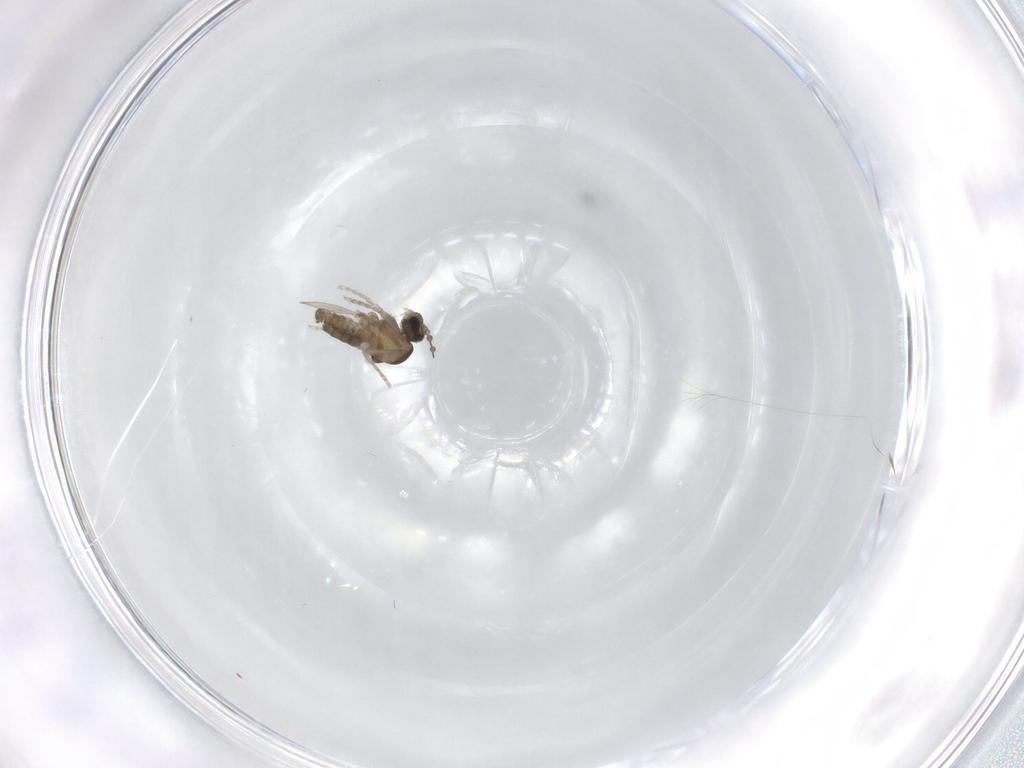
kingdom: Animalia
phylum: Arthropoda
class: Insecta
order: Diptera
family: Cecidomyiidae
